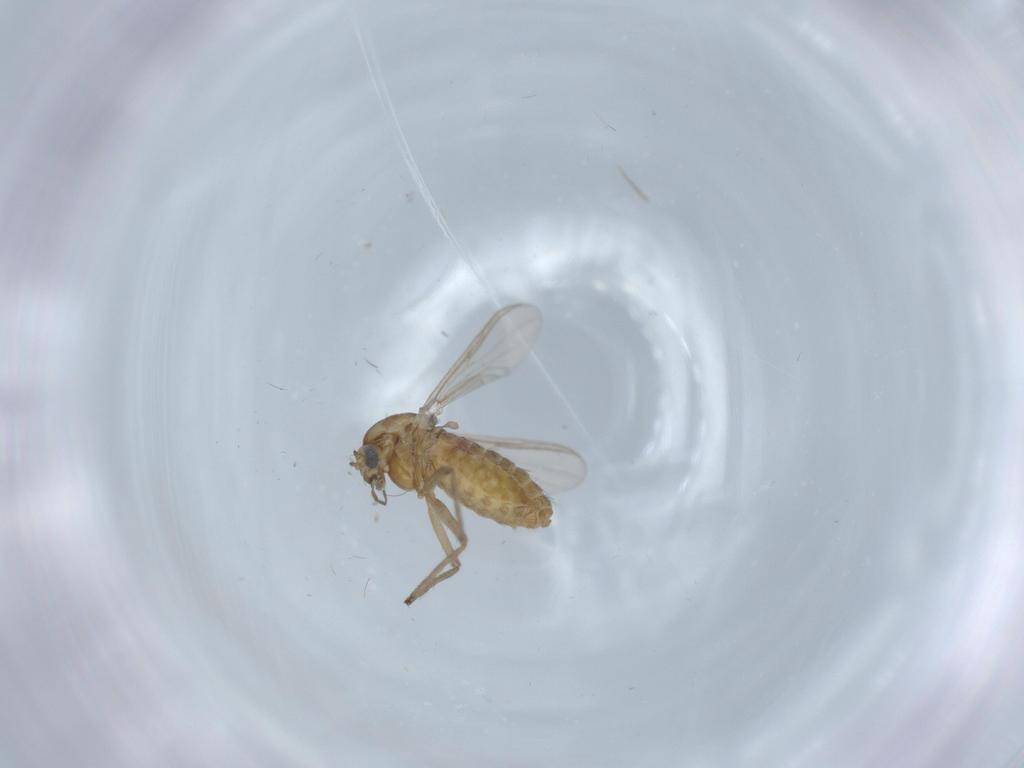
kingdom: Animalia
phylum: Arthropoda
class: Insecta
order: Diptera
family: Chironomidae
